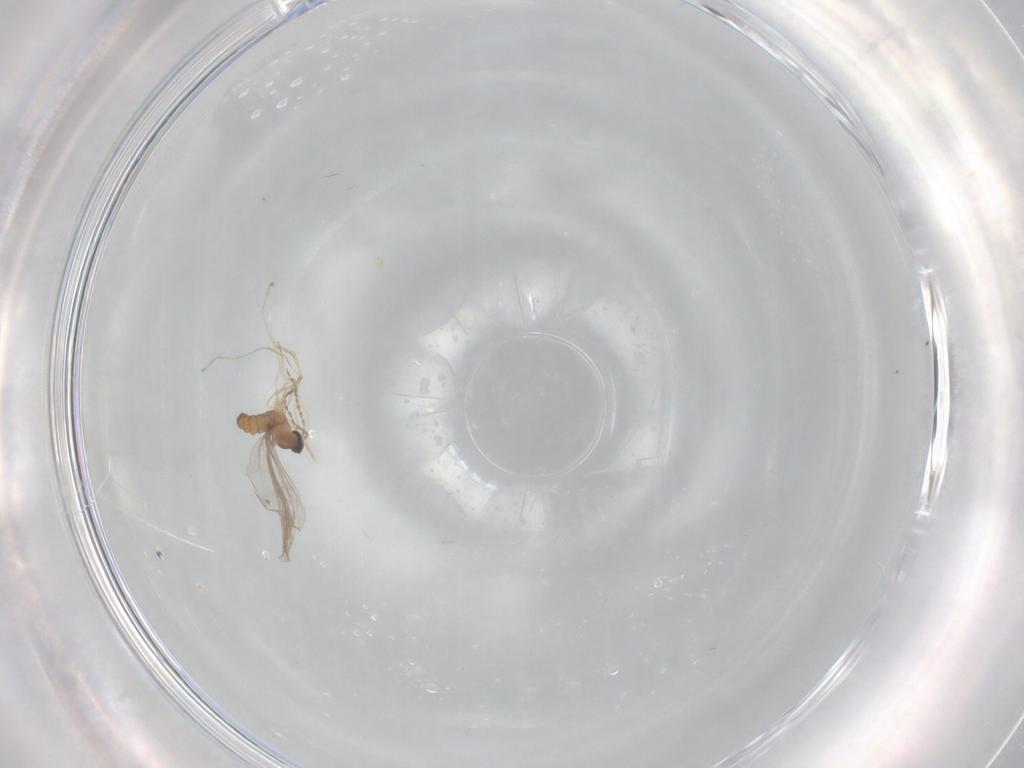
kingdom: Animalia
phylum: Arthropoda
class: Insecta
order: Diptera
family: Cecidomyiidae
